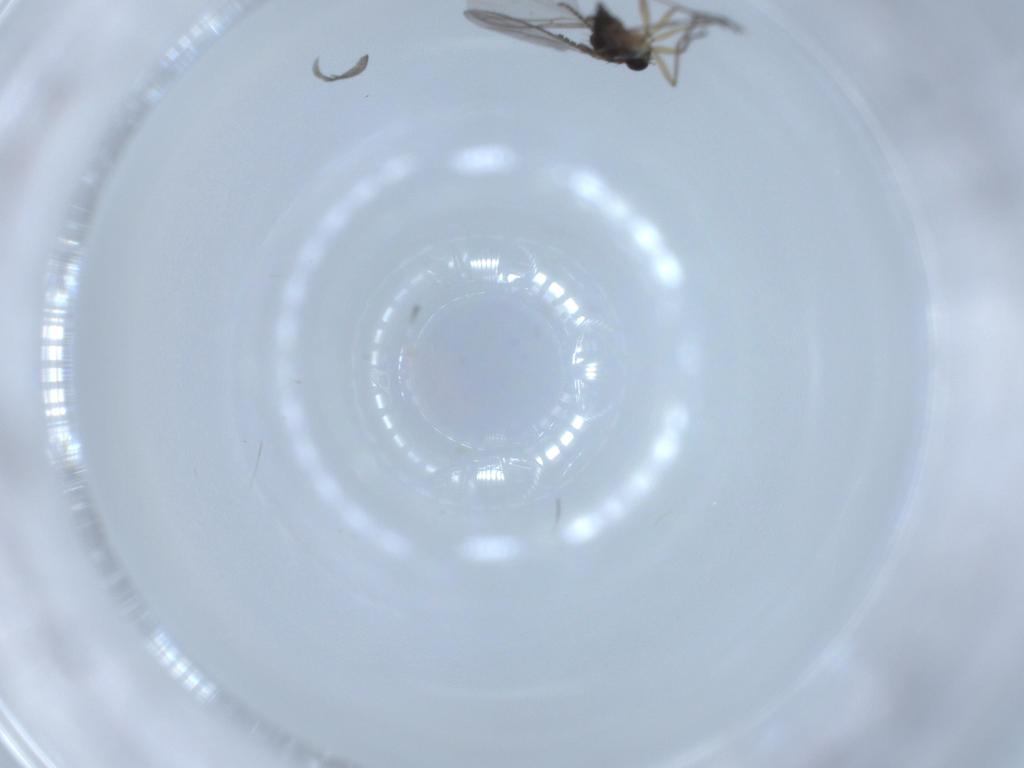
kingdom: Animalia
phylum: Arthropoda
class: Insecta
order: Diptera
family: Sciaridae
